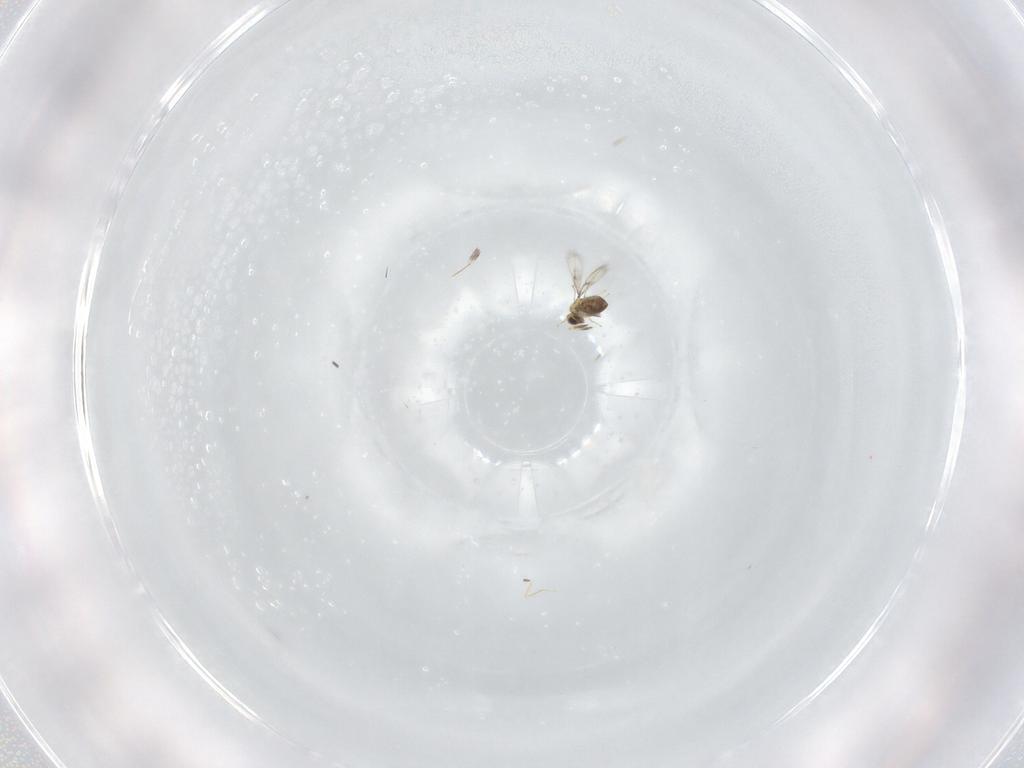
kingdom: Animalia
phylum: Arthropoda
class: Insecta
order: Hymenoptera
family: Trichogrammatidae
